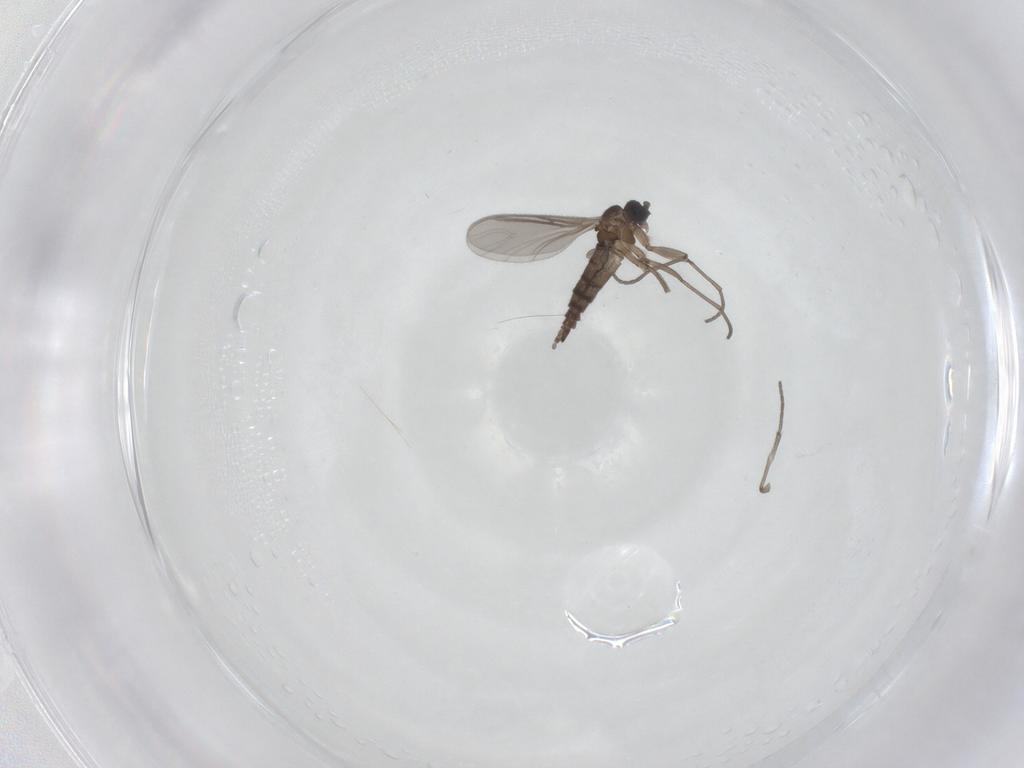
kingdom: Animalia
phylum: Arthropoda
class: Insecta
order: Diptera
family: Sciaridae
